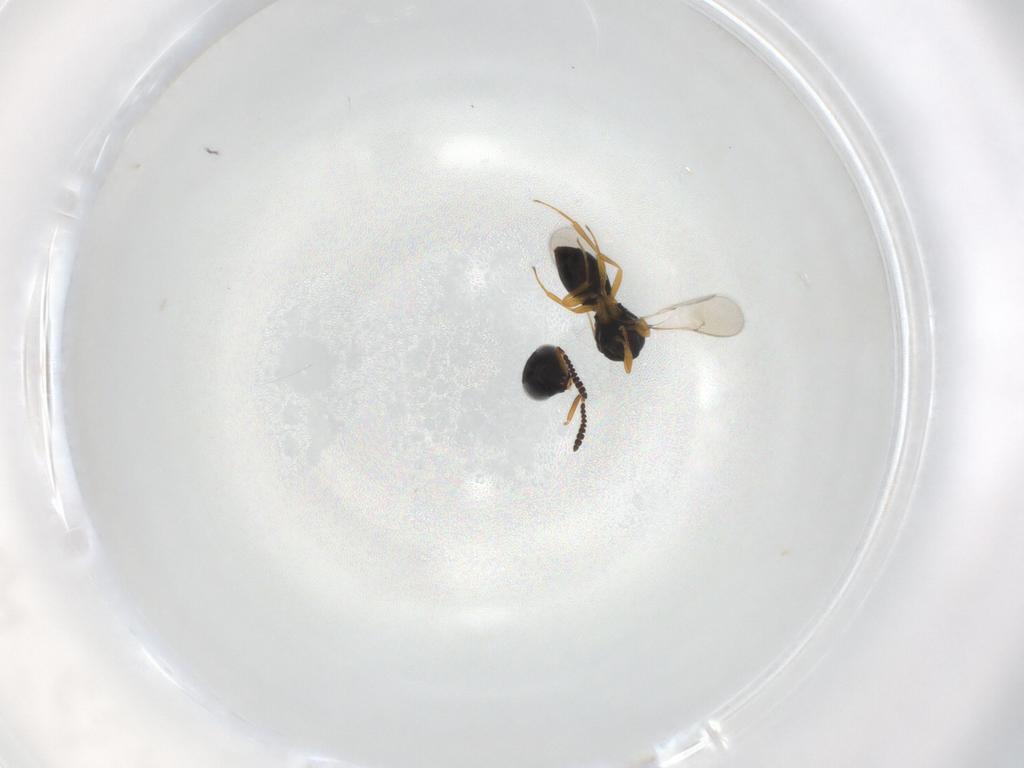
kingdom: Animalia
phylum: Arthropoda
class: Insecta
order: Hymenoptera
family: Scelionidae
